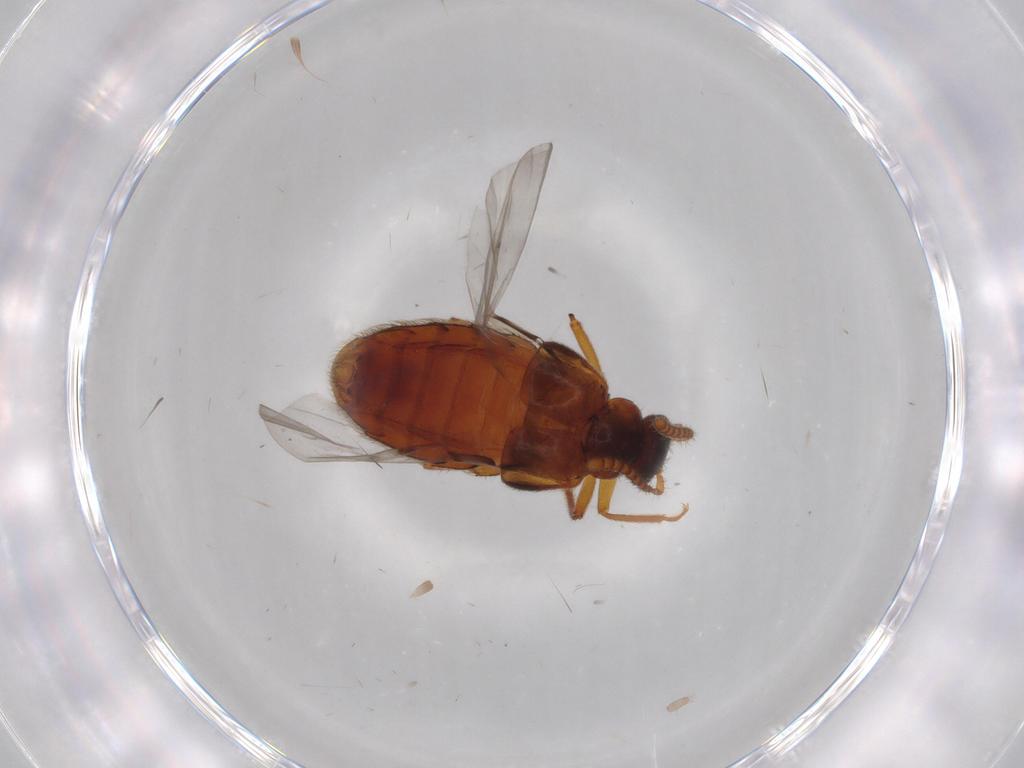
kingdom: Animalia
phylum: Arthropoda
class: Insecta
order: Coleoptera
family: Staphylinidae
